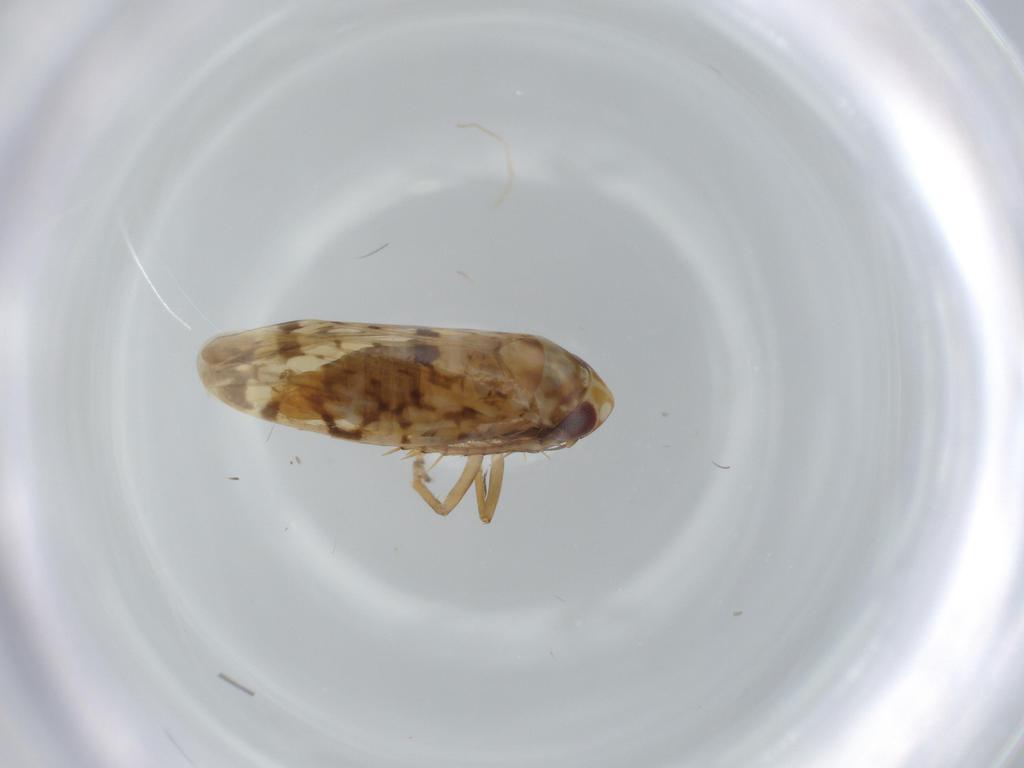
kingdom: Animalia
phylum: Arthropoda
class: Insecta
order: Hemiptera
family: Cicadellidae
